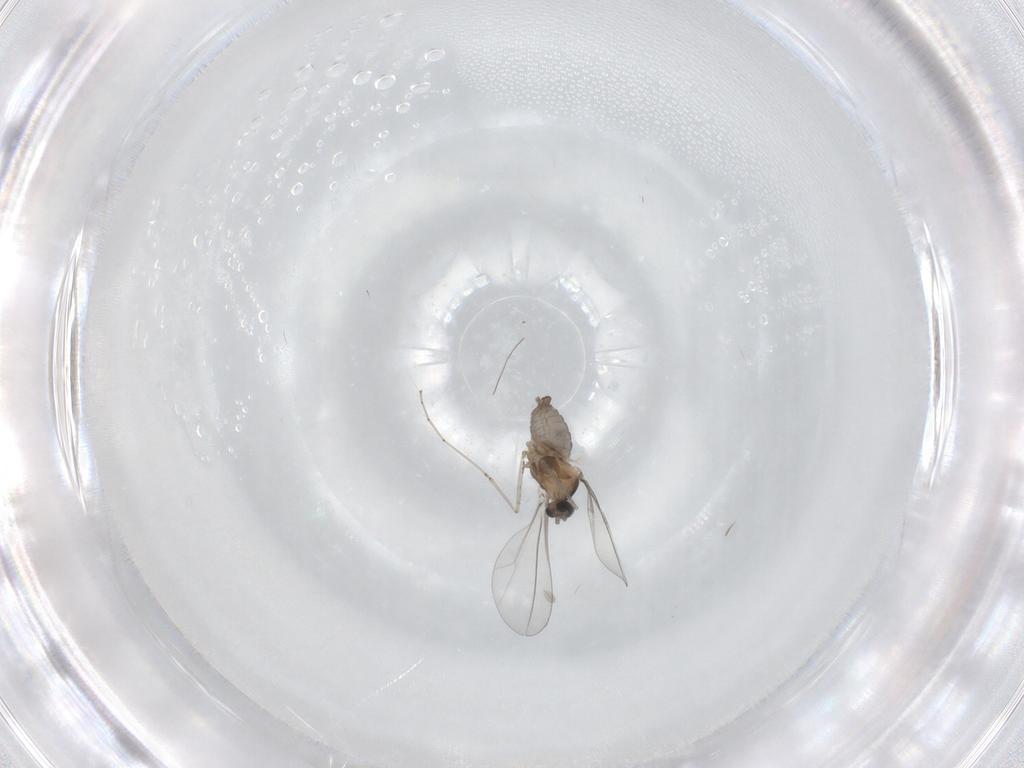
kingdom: Animalia
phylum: Arthropoda
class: Insecta
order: Diptera
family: Cecidomyiidae
